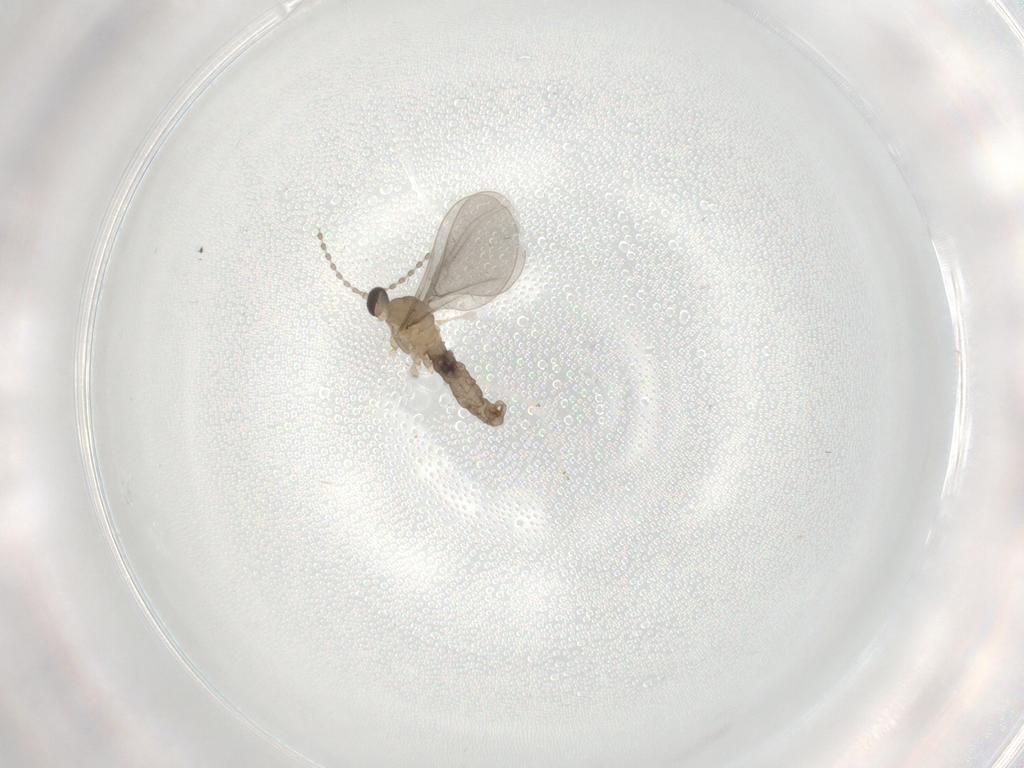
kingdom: Animalia
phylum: Arthropoda
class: Insecta
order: Diptera
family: Cecidomyiidae
